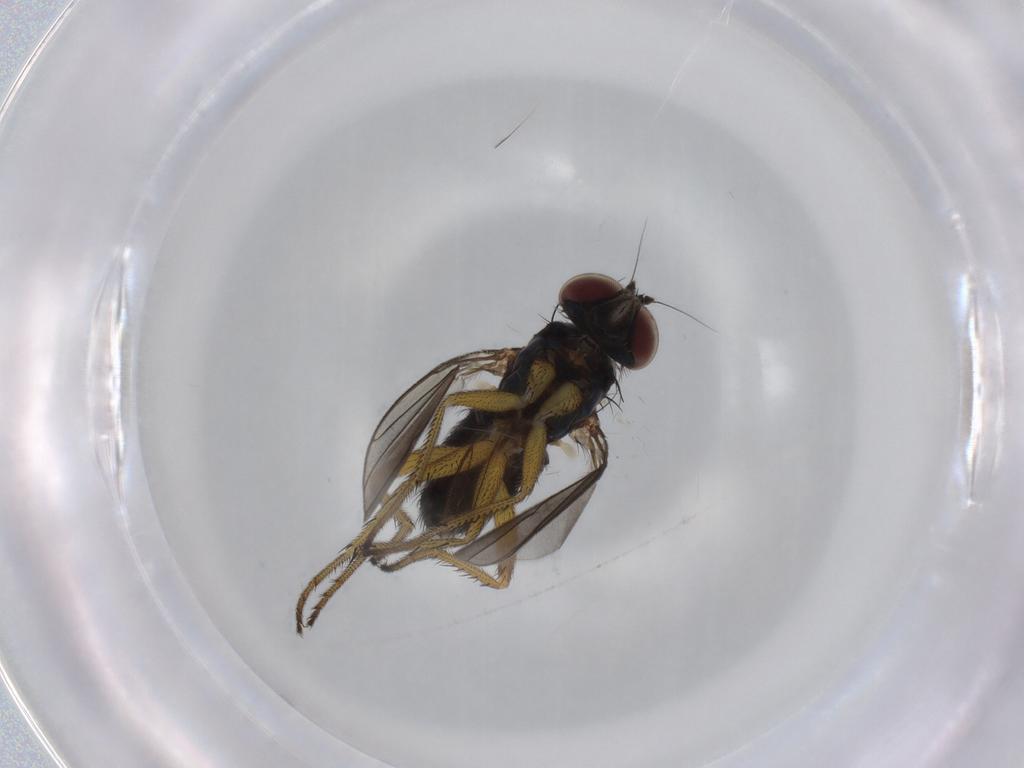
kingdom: Animalia
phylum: Arthropoda
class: Insecta
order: Diptera
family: Dolichopodidae
